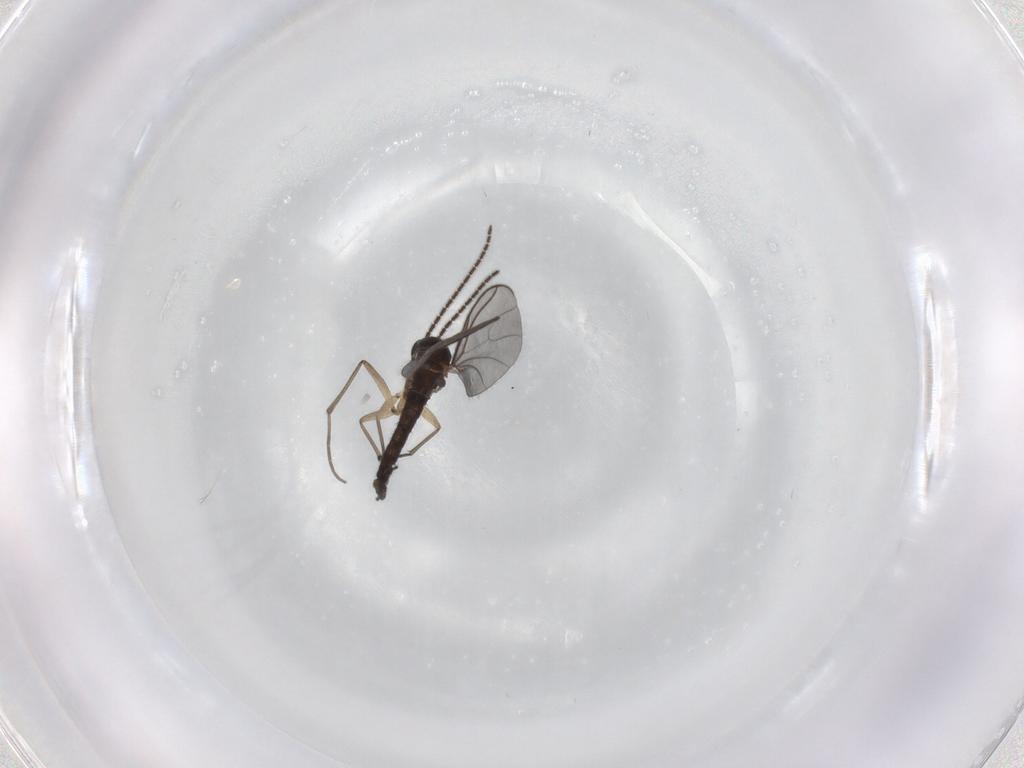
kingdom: Animalia
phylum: Arthropoda
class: Insecta
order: Diptera
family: Sciaridae
